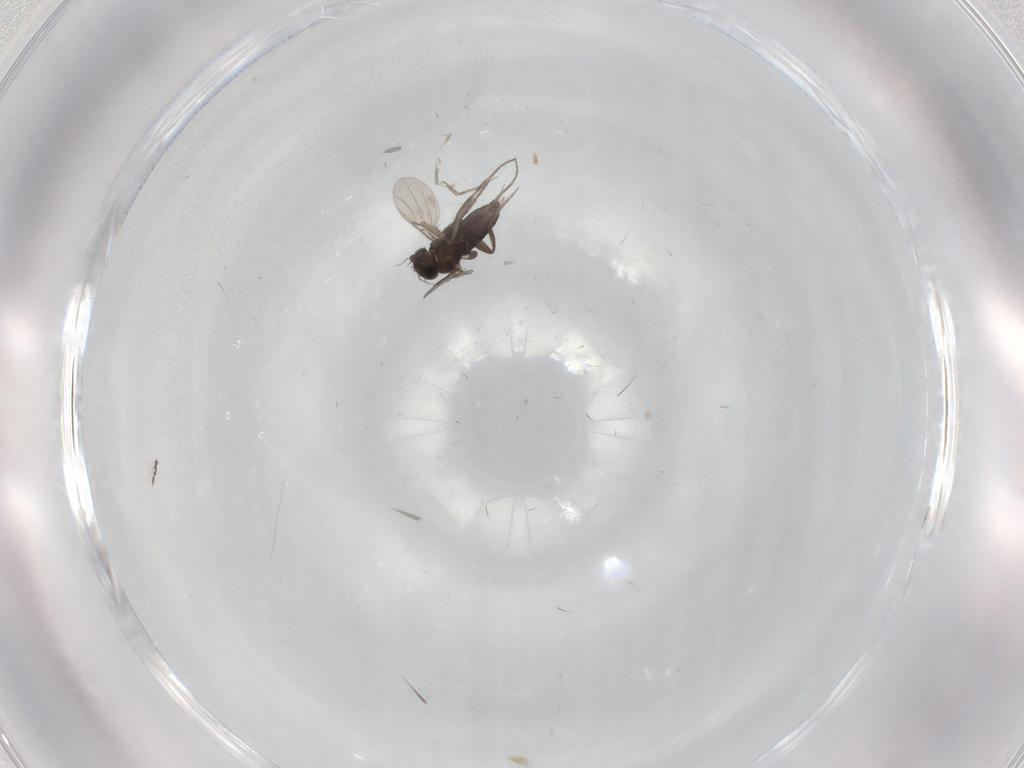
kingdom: Animalia
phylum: Arthropoda
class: Insecta
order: Diptera
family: Phoridae
